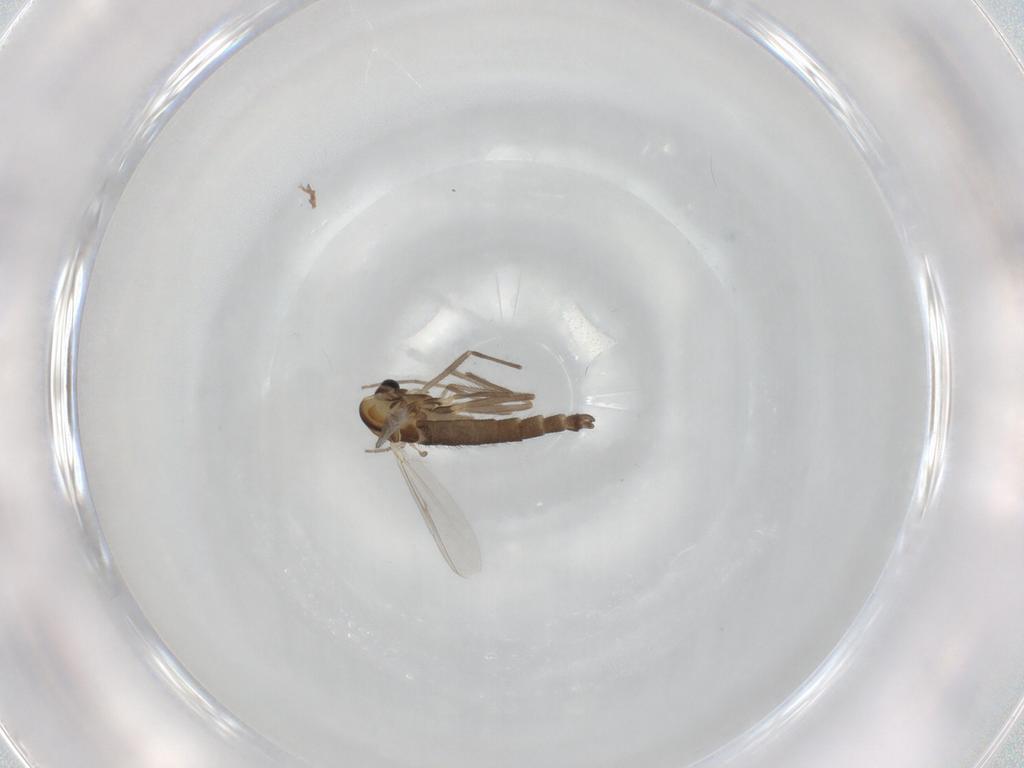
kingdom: Animalia
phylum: Arthropoda
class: Insecta
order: Diptera
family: Chironomidae
